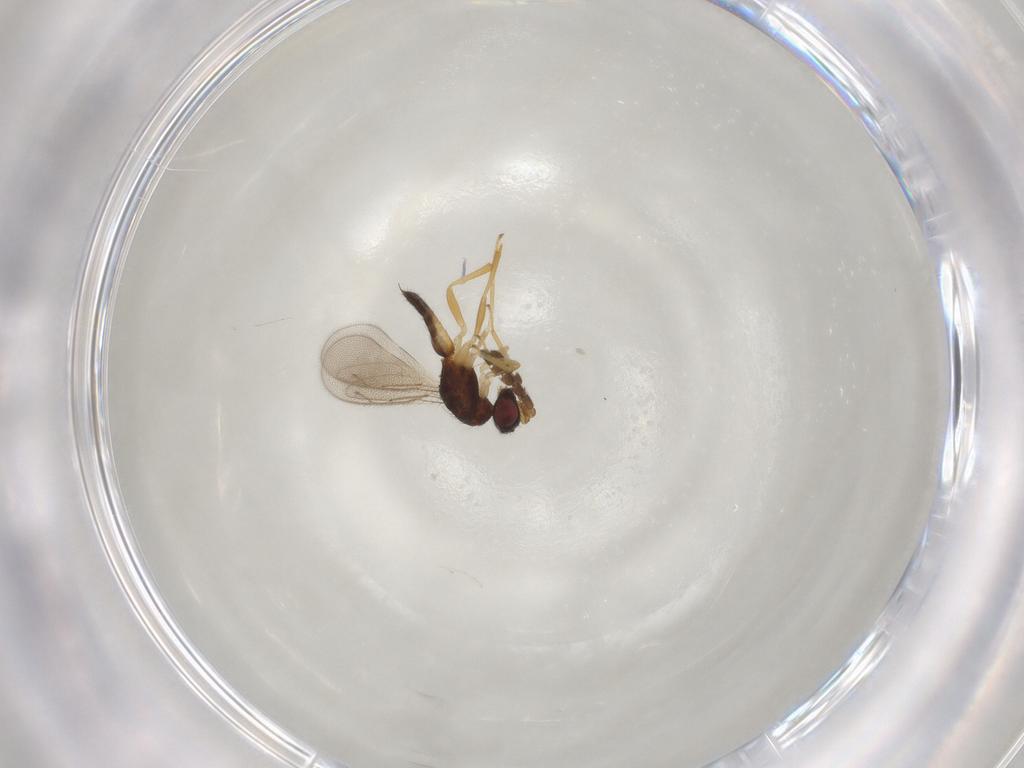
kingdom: Animalia
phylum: Arthropoda
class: Insecta
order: Hymenoptera
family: Eulophidae
